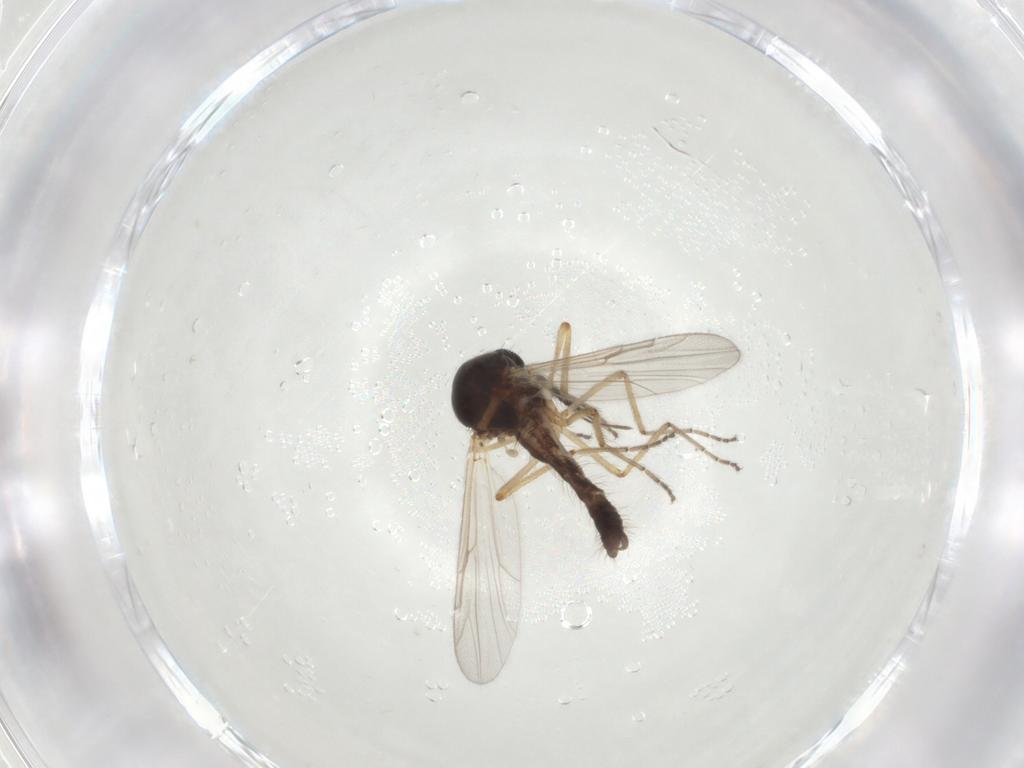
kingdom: Animalia
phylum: Arthropoda
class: Insecta
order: Diptera
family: Ceratopogonidae
